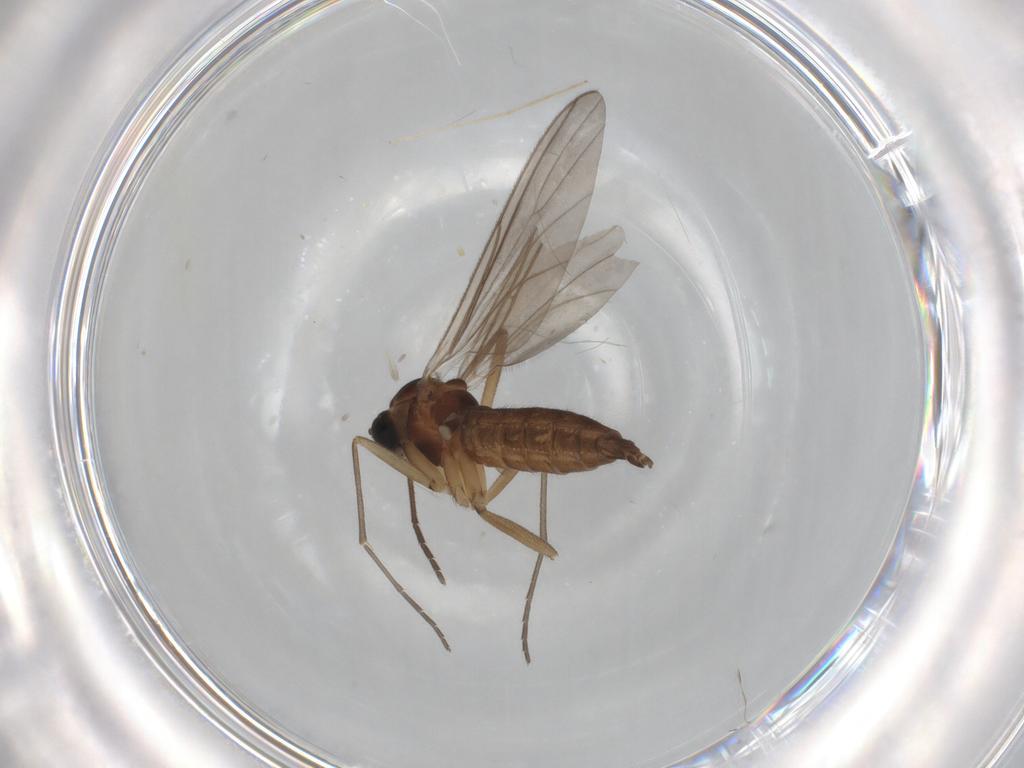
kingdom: Animalia
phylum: Arthropoda
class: Insecta
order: Diptera
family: Sciaridae
